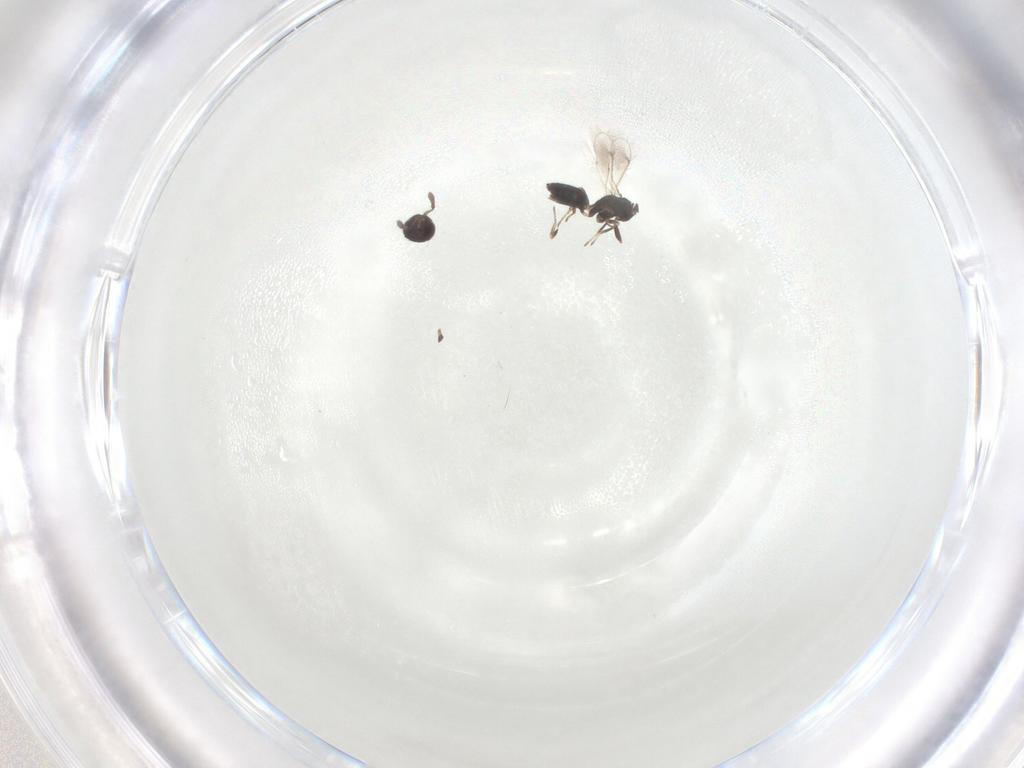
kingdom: Animalia
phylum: Arthropoda
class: Insecta
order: Hymenoptera
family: Eulophidae
